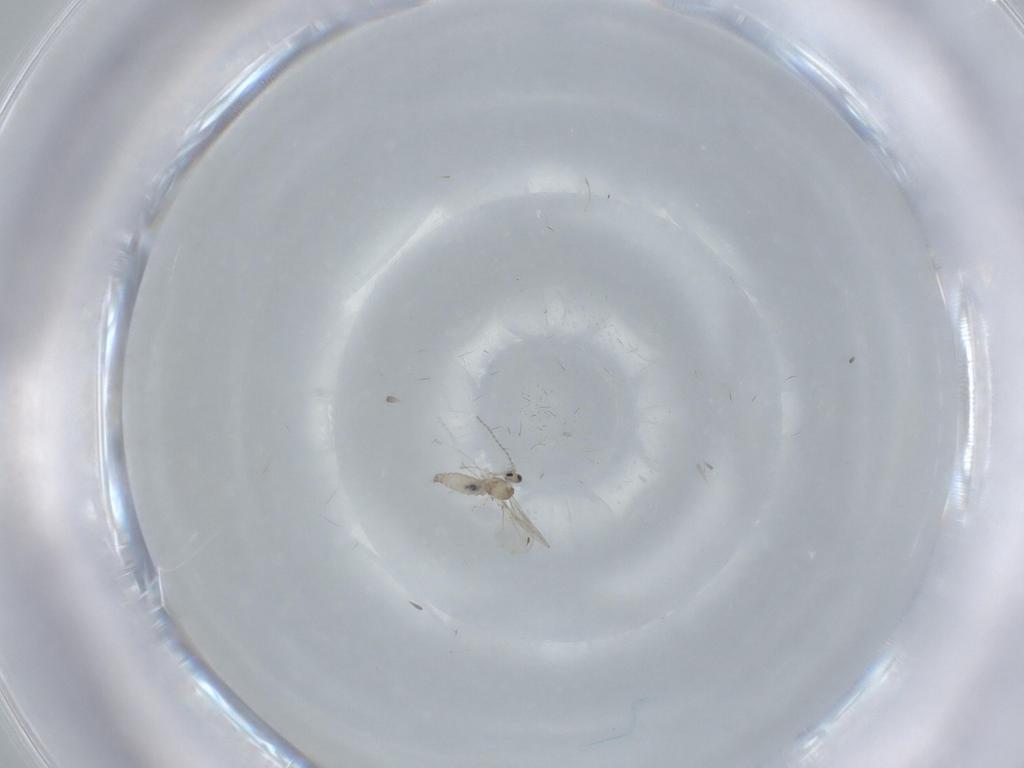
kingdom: Animalia
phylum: Arthropoda
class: Insecta
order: Diptera
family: Cecidomyiidae
